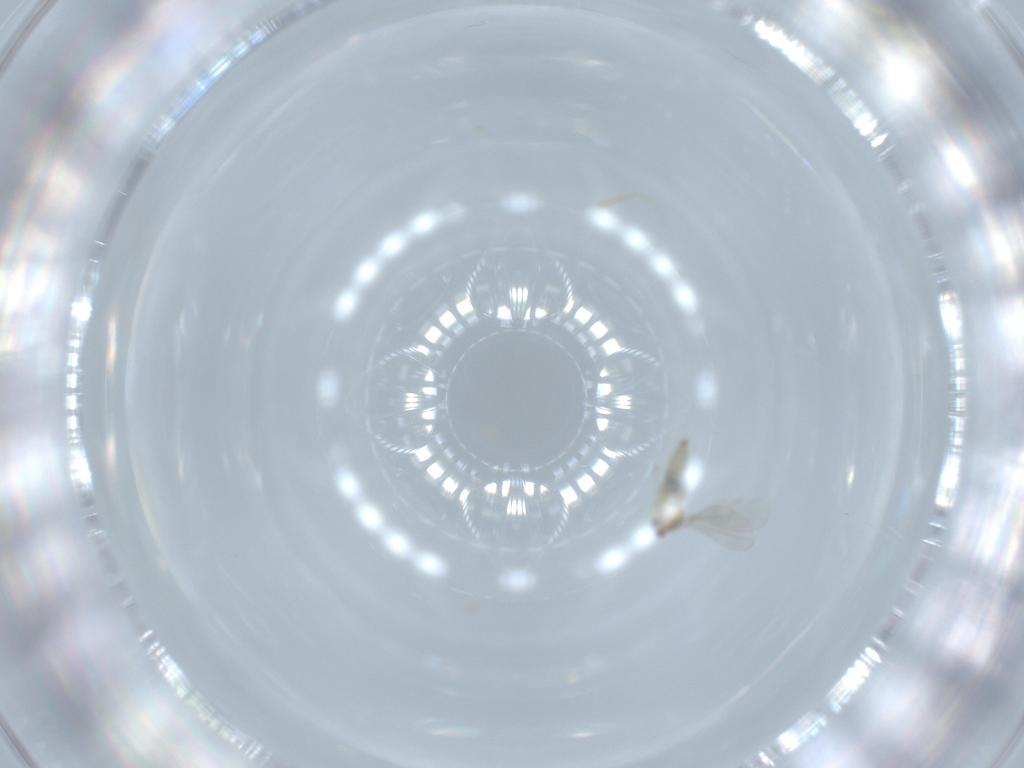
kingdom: Animalia
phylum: Arthropoda
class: Insecta
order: Diptera
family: Cecidomyiidae
